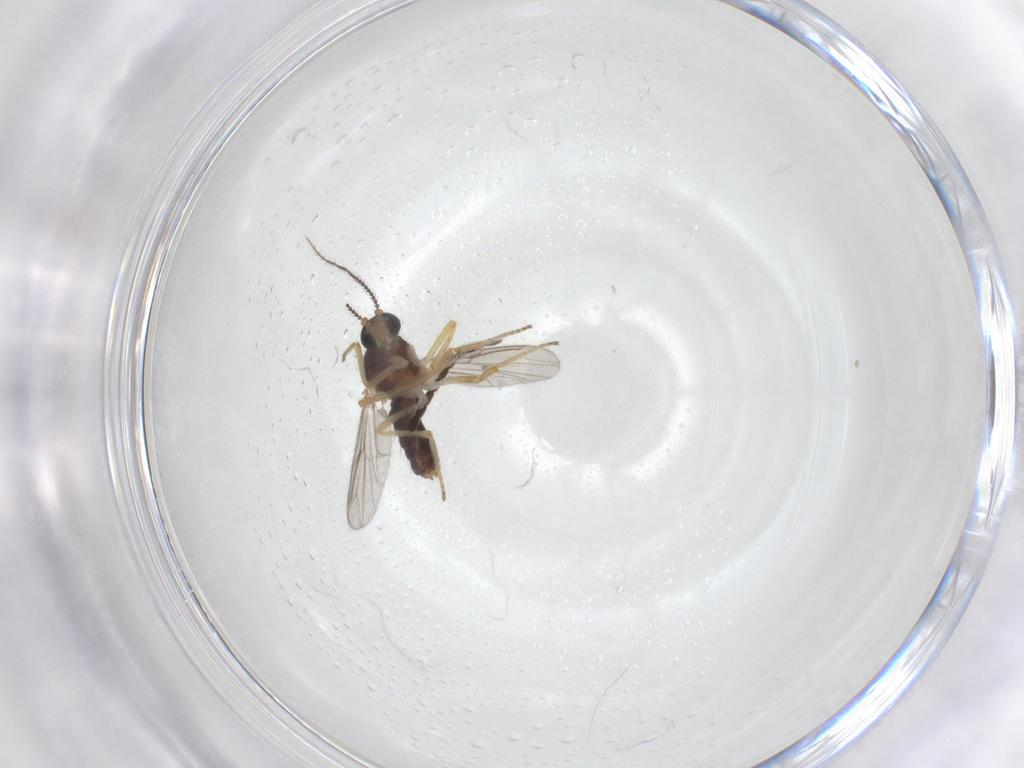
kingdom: Animalia
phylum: Arthropoda
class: Insecta
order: Diptera
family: Ceratopogonidae
